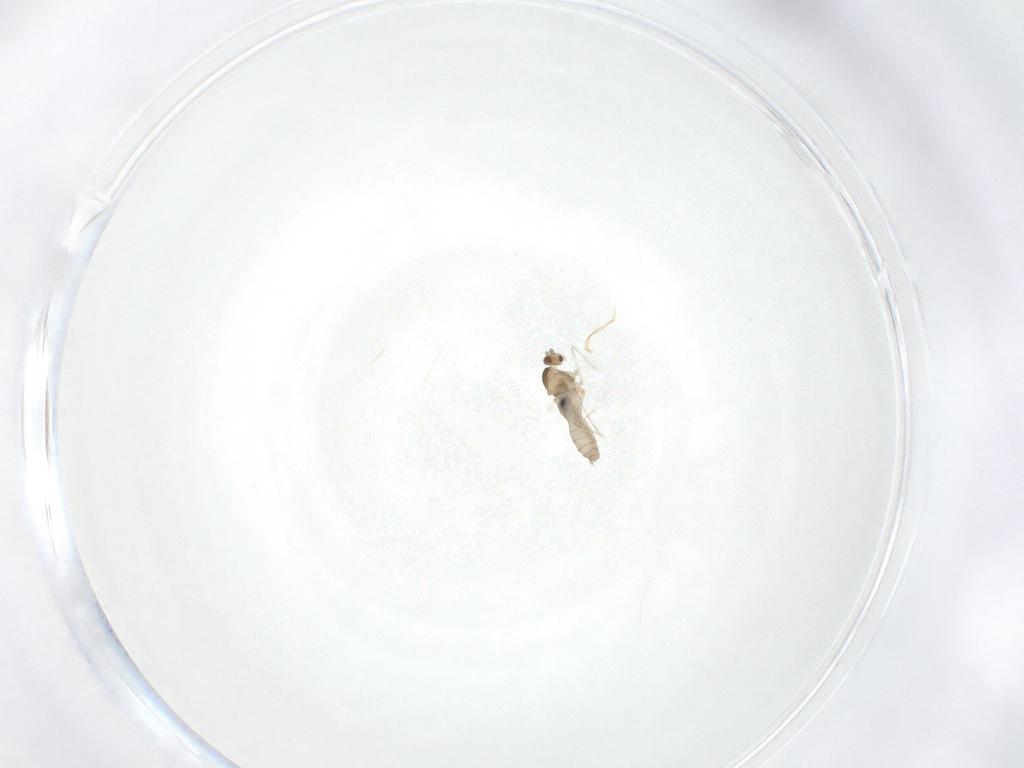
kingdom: Animalia
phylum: Arthropoda
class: Insecta
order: Diptera
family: Cecidomyiidae
